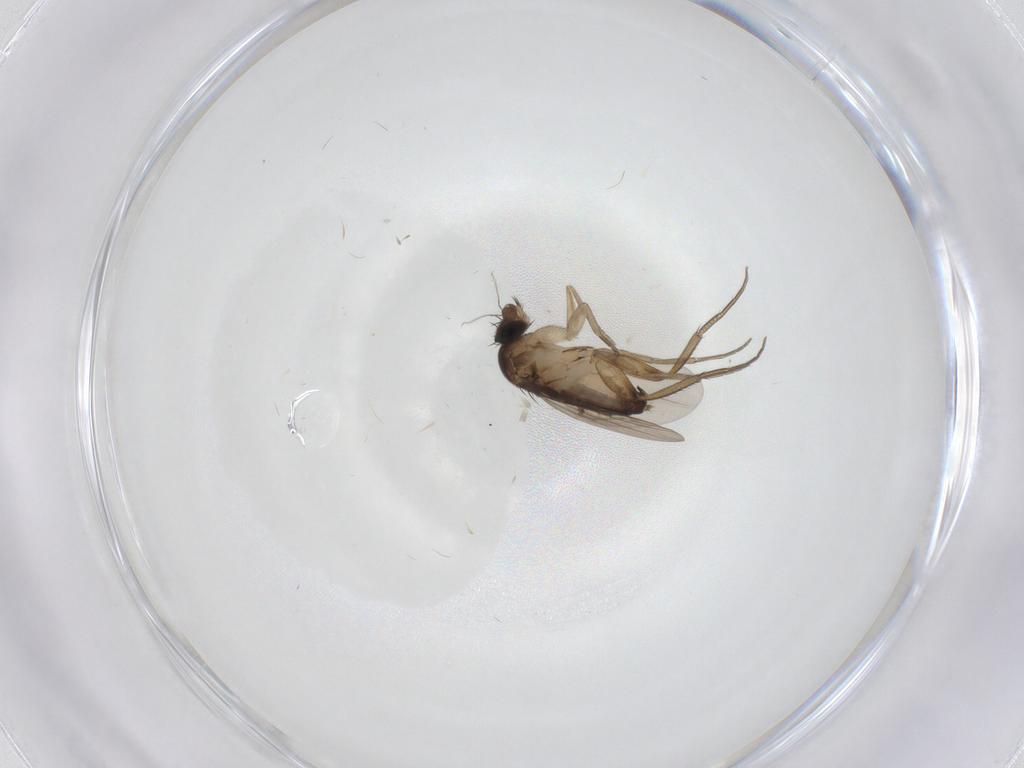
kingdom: Animalia
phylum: Arthropoda
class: Insecta
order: Diptera
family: Phoridae
